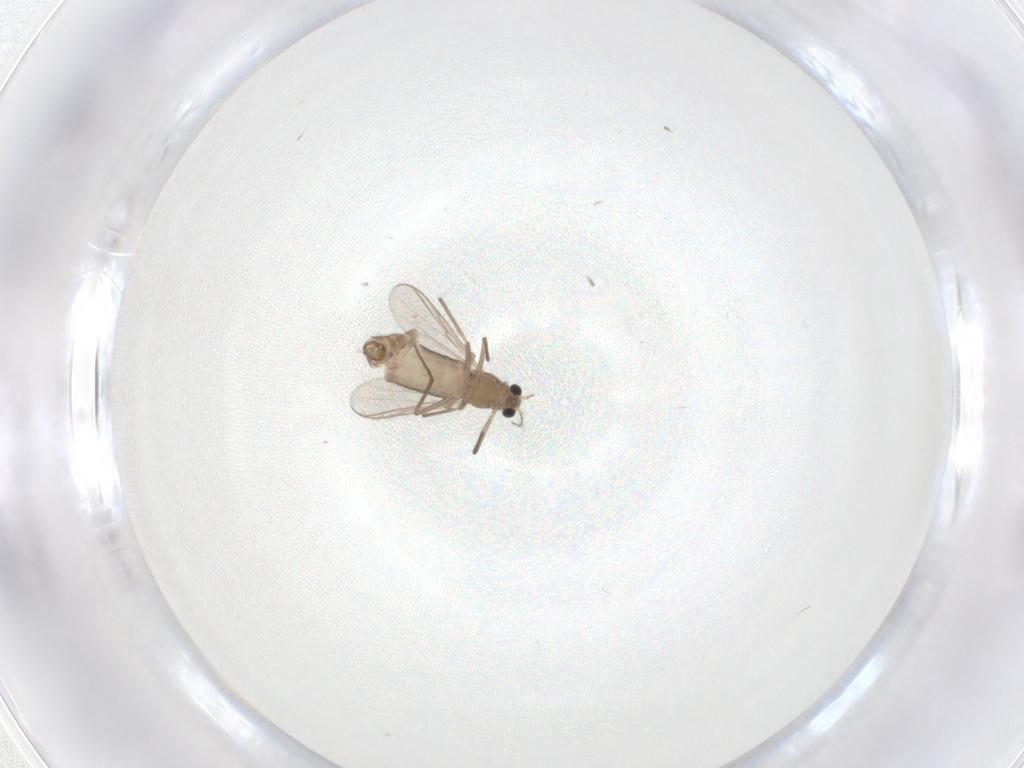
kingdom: Animalia
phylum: Arthropoda
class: Insecta
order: Diptera
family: Chironomidae
